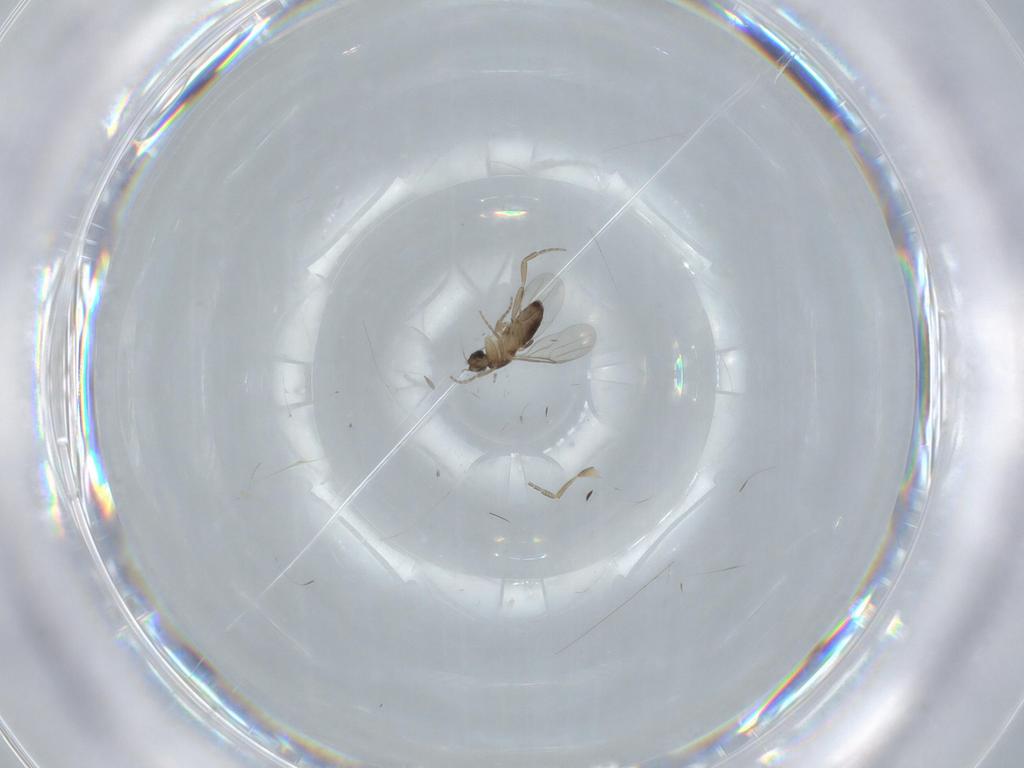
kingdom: Animalia
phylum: Arthropoda
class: Insecta
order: Diptera
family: Phoridae
